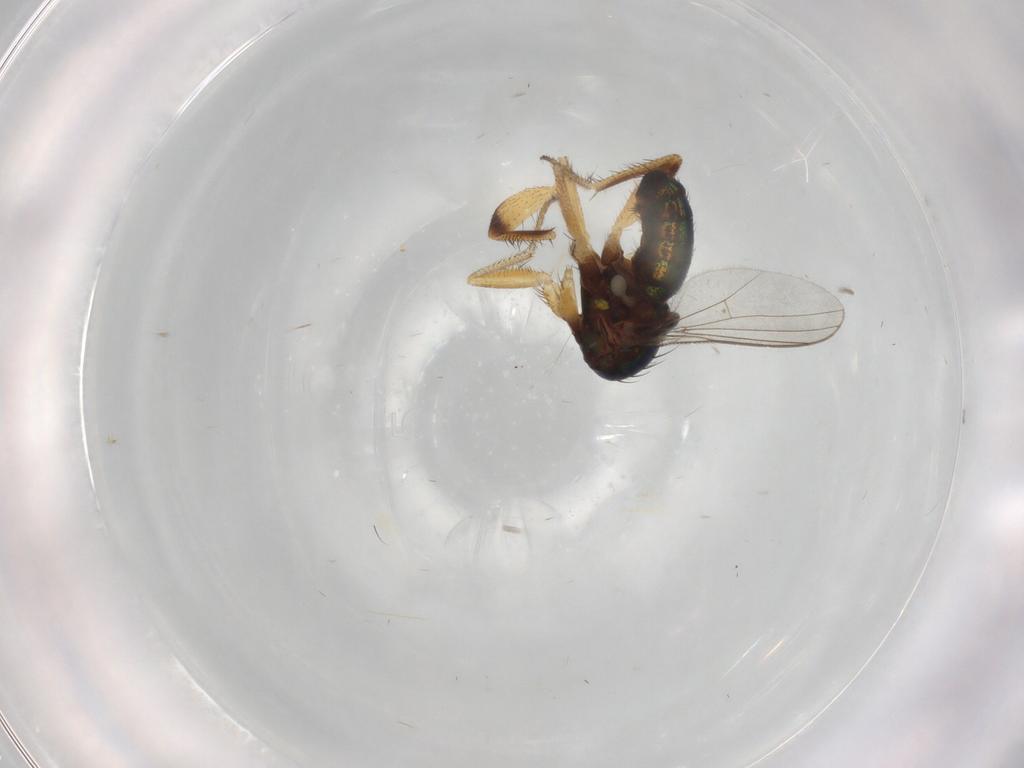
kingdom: Animalia
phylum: Arthropoda
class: Insecta
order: Diptera
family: Dolichopodidae
